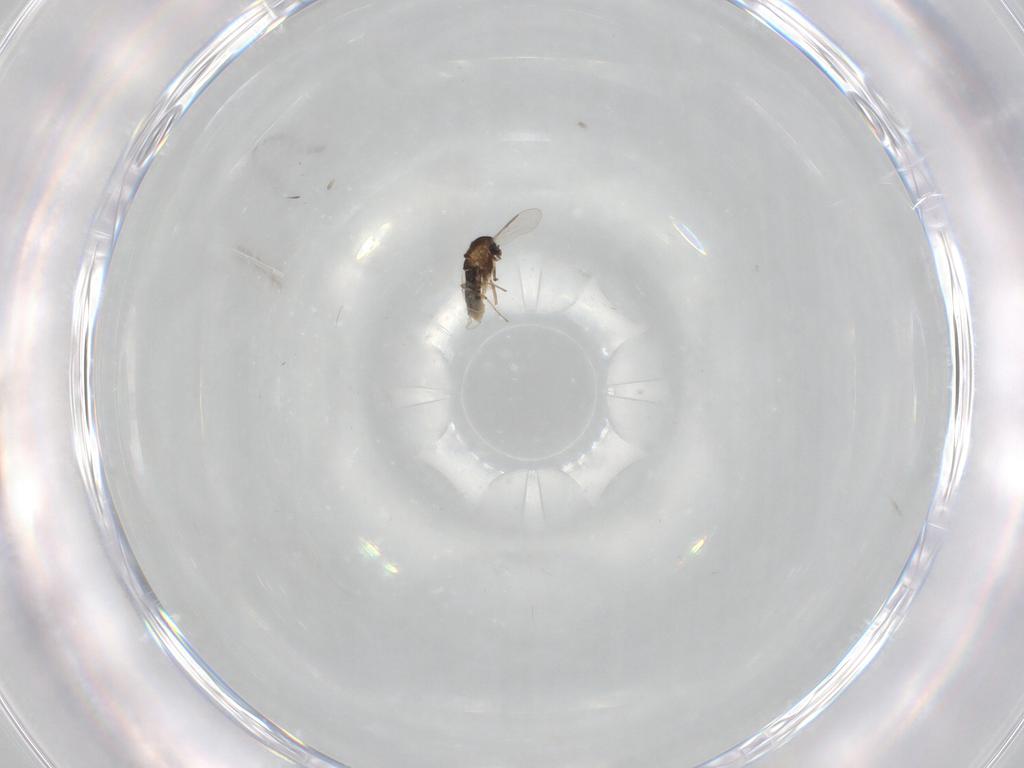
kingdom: Animalia
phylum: Arthropoda
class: Insecta
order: Diptera
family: Chironomidae
